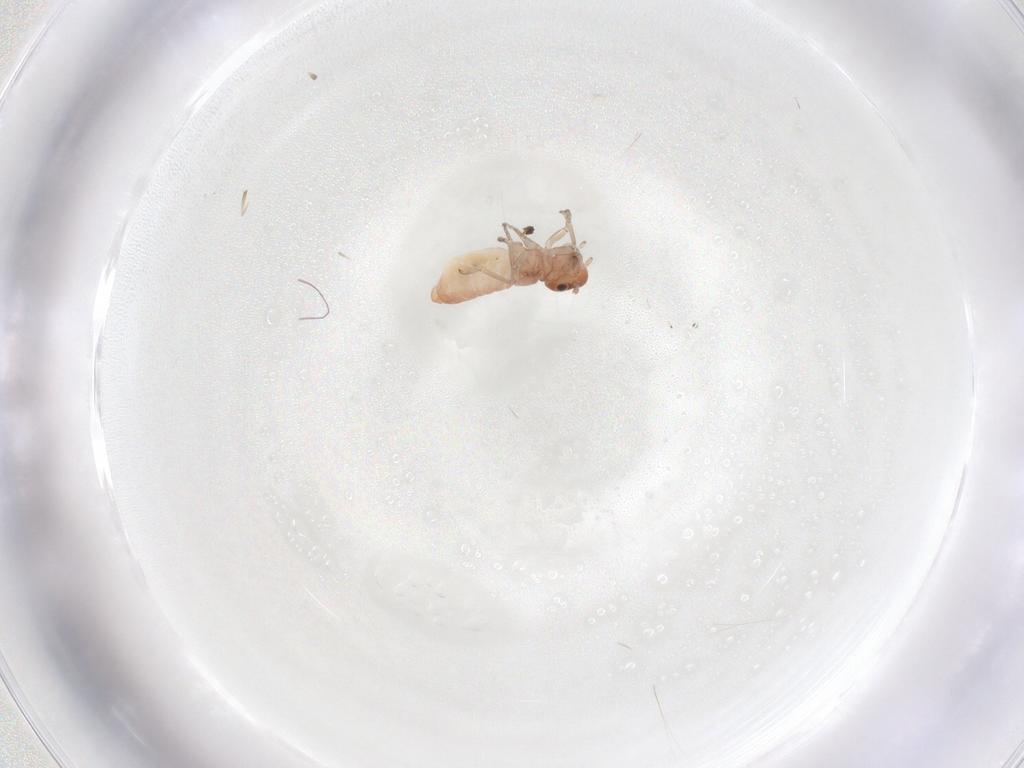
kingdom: Animalia
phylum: Arthropoda
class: Insecta
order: Psocodea
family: Caeciliusidae
